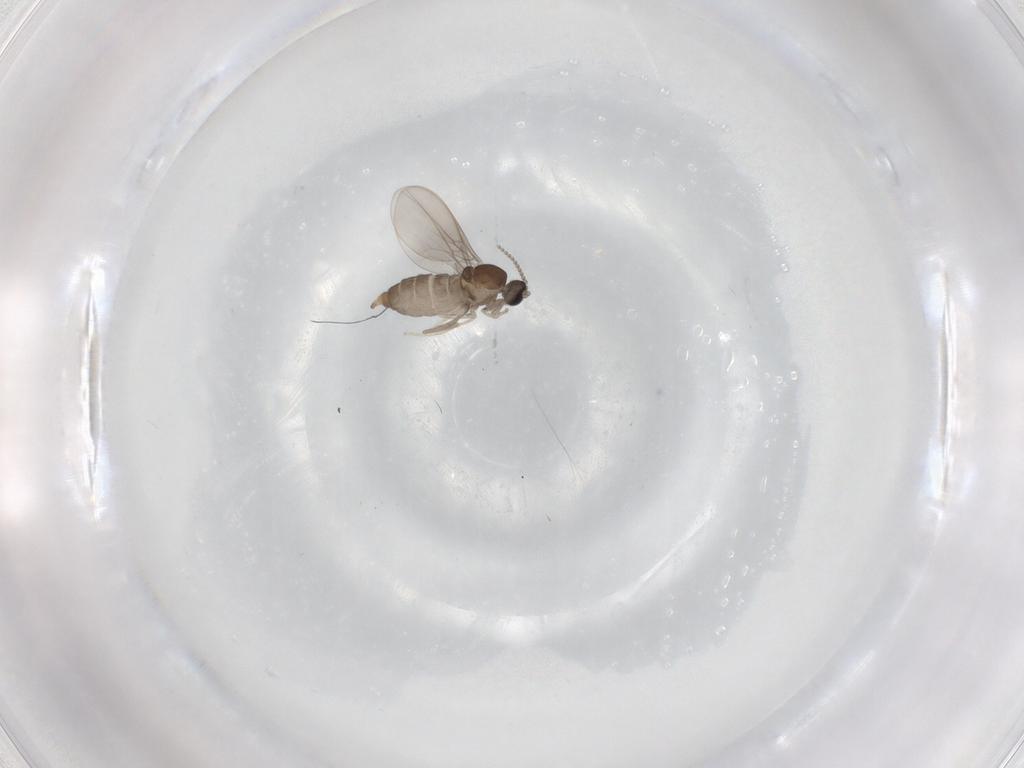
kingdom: Animalia
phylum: Arthropoda
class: Insecta
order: Diptera
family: Cecidomyiidae
